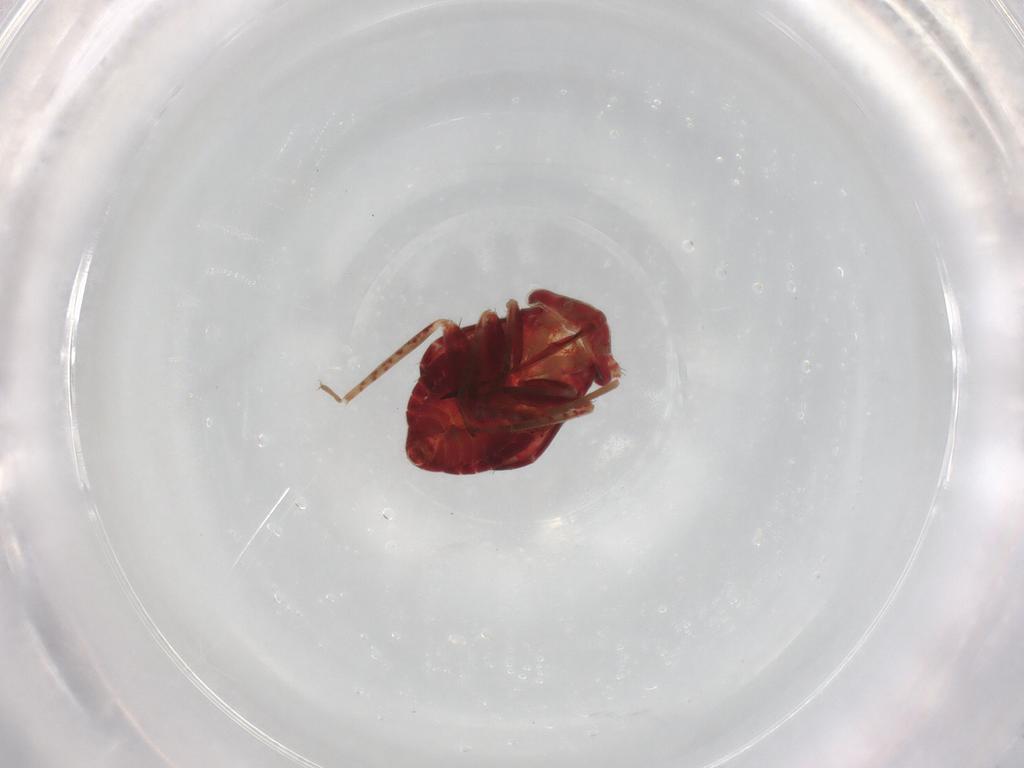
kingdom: Animalia
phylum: Arthropoda
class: Insecta
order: Hemiptera
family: Miridae
